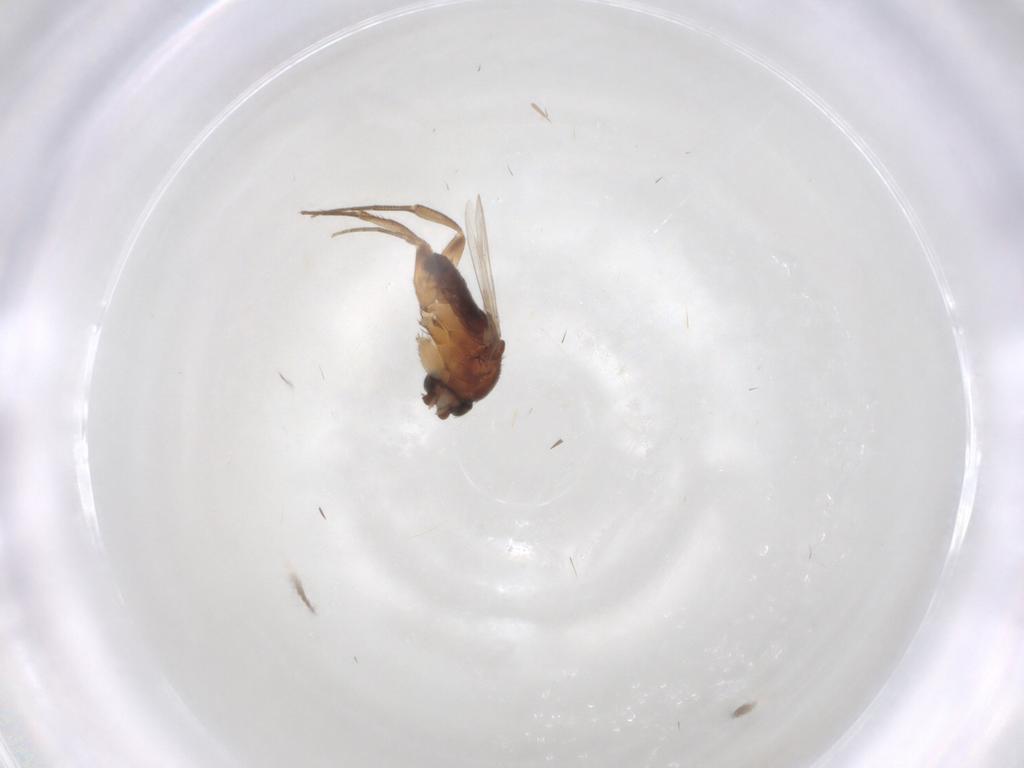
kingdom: Animalia
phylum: Arthropoda
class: Insecta
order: Diptera
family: Phoridae
